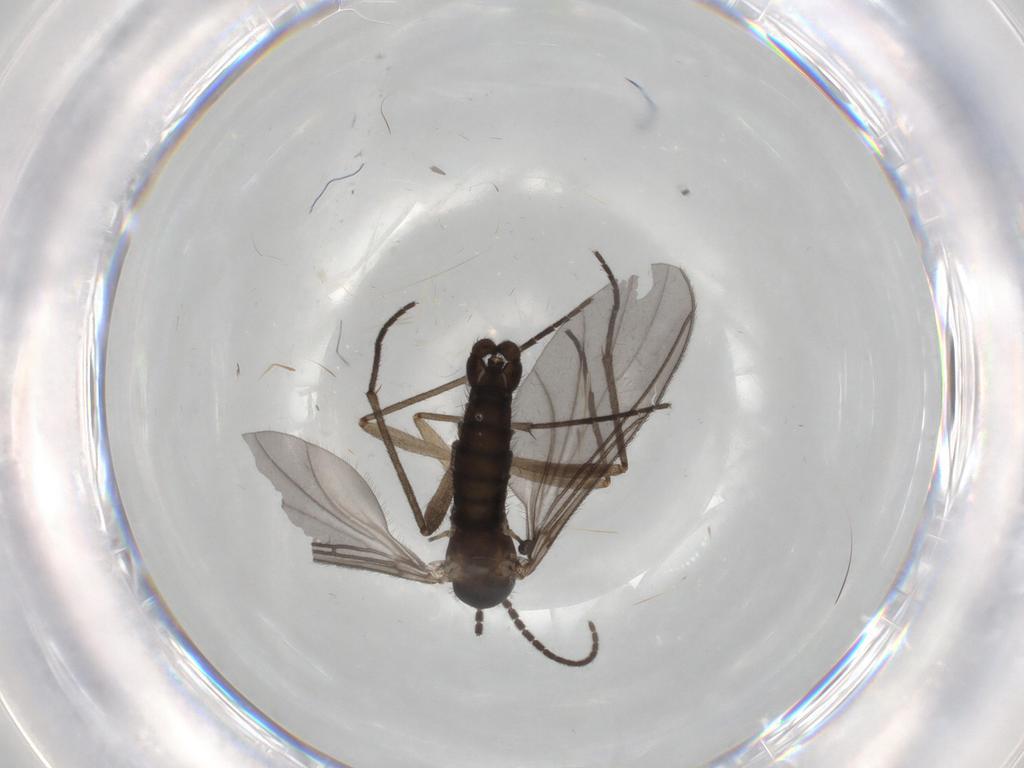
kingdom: Animalia
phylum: Arthropoda
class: Insecta
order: Diptera
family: Sciaridae
